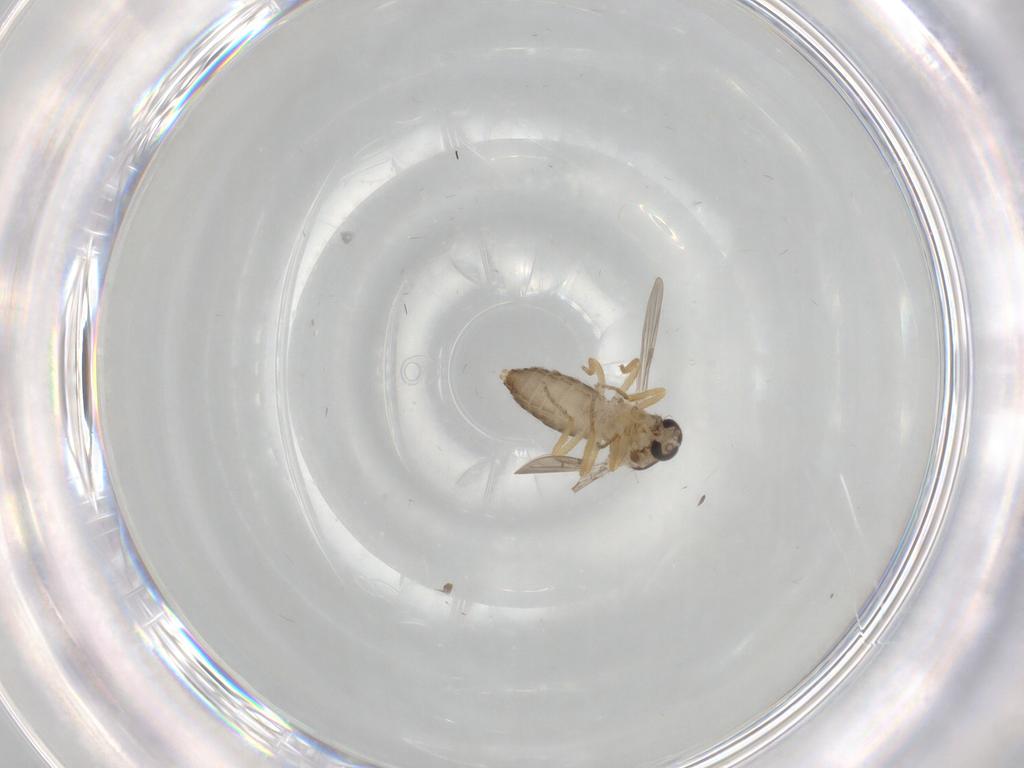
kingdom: Animalia
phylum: Arthropoda
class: Insecta
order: Diptera
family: Ceratopogonidae
